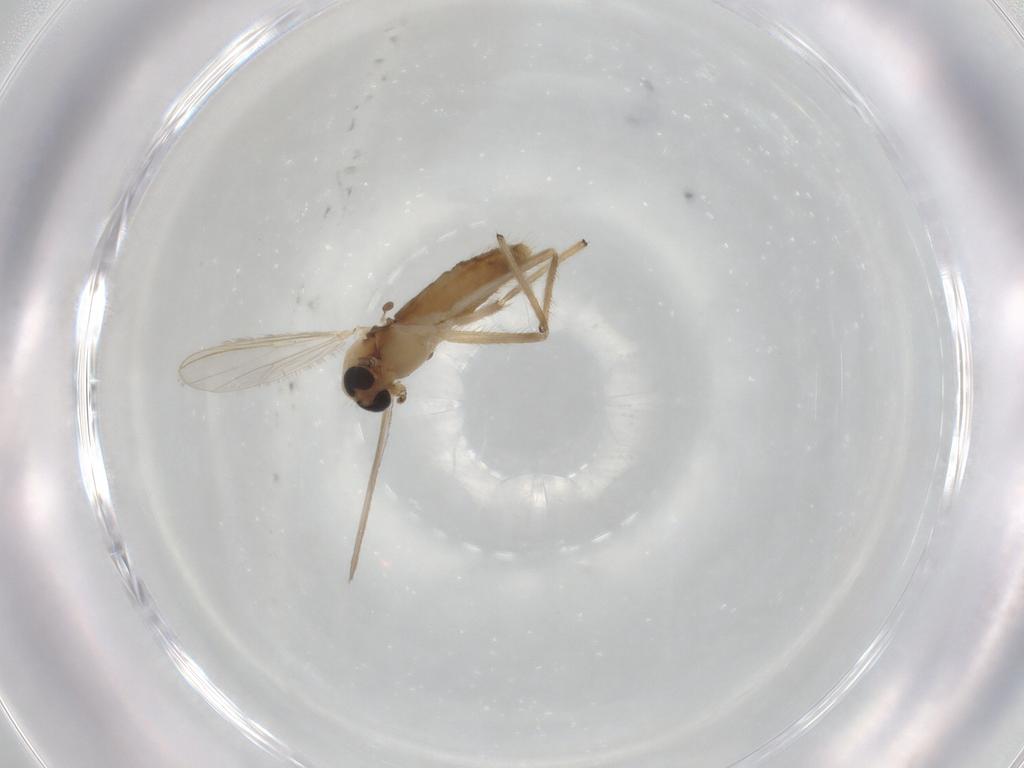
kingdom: Animalia
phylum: Arthropoda
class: Insecta
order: Diptera
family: Chironomidae
